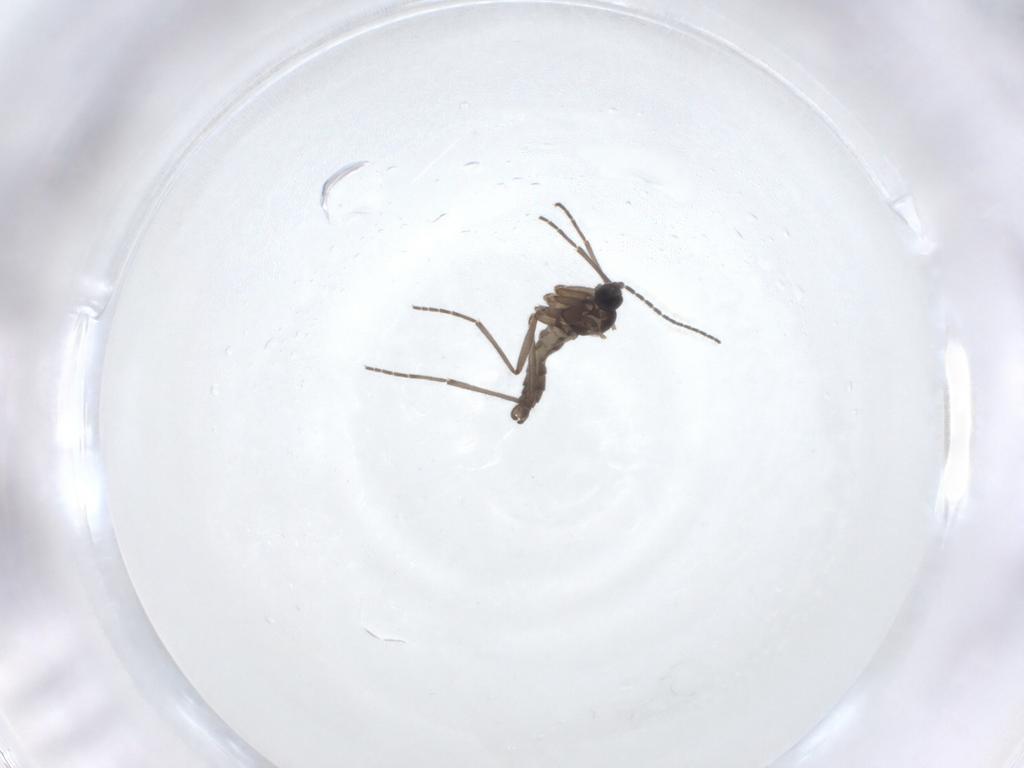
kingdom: Animalia
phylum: Arthropoda
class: Insecta
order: Diptera
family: Sciaridae
